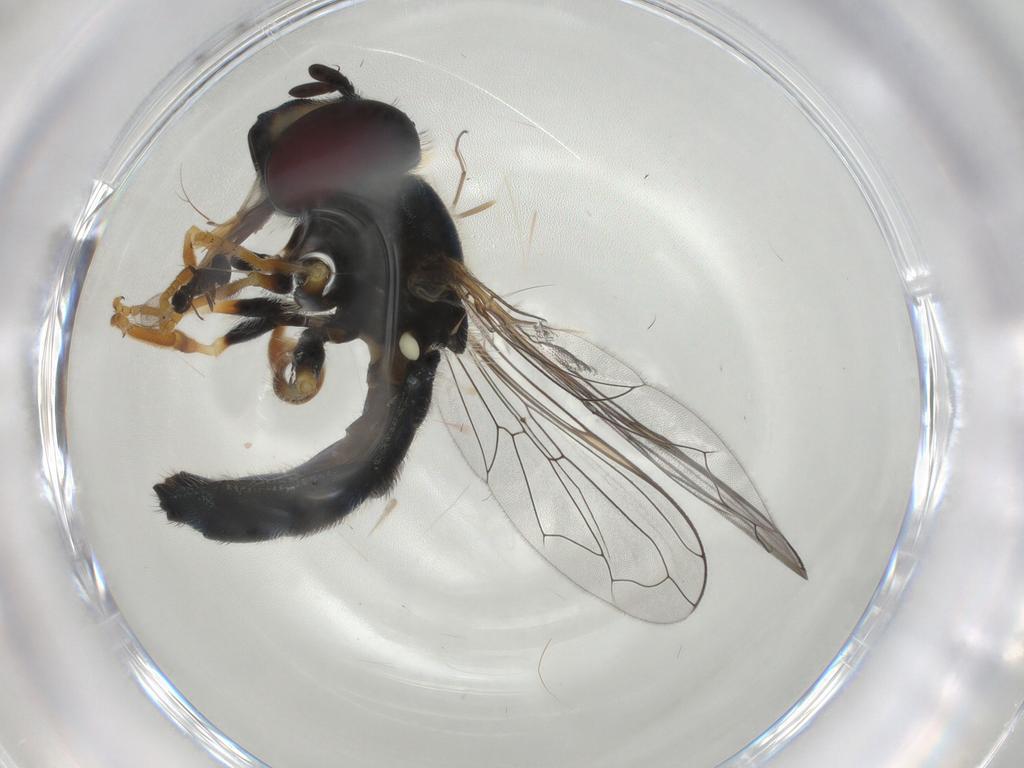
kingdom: Animalia
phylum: Arthropoda
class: Insecta
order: Diptera
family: Syrphidae
